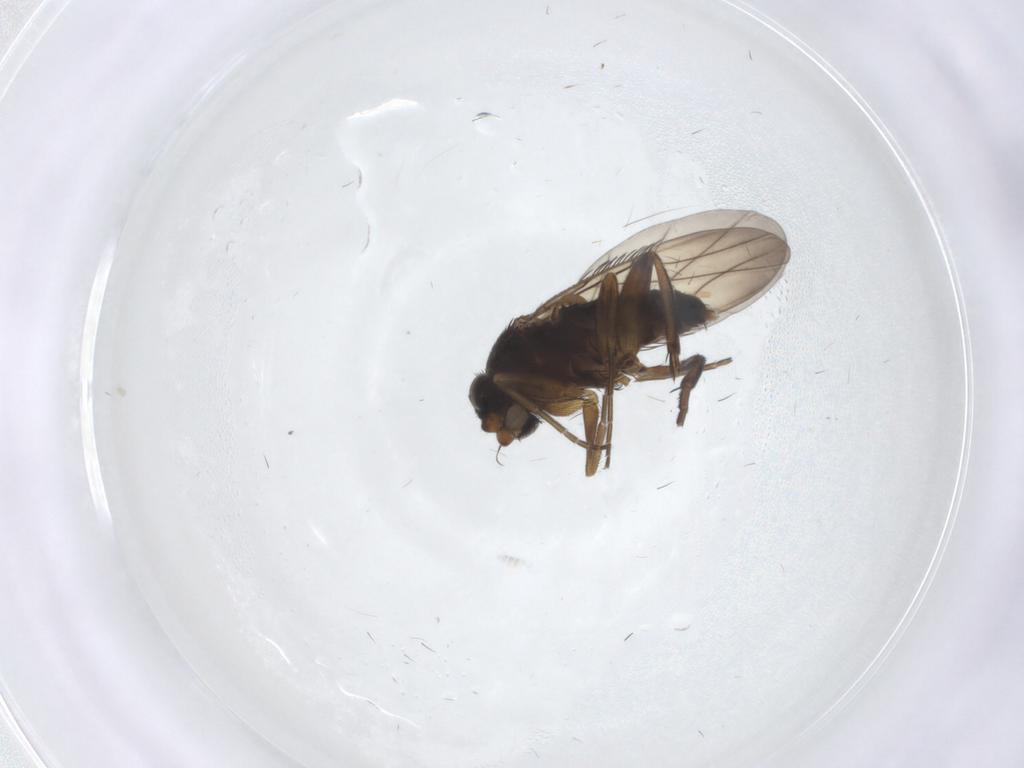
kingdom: Animalia
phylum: Arthropoda
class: Insecta
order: Diptera
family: Phoridae
